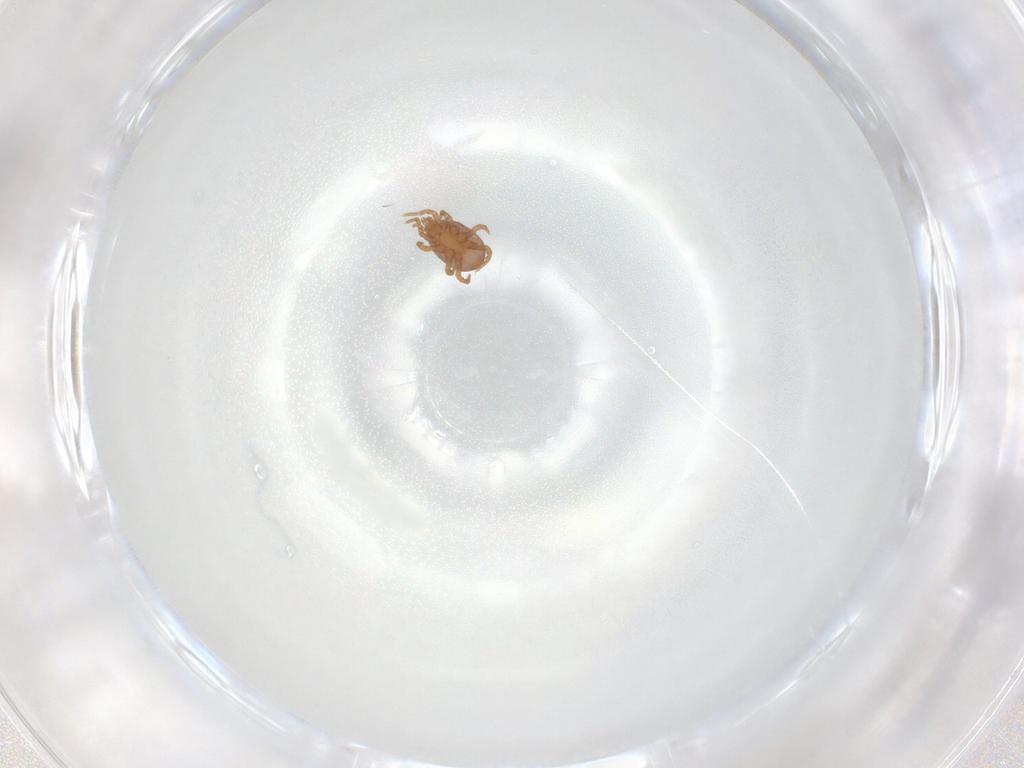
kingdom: Animalia
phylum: Arthropoda
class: Arachnida
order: Mesostigmata
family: Eviphididae
